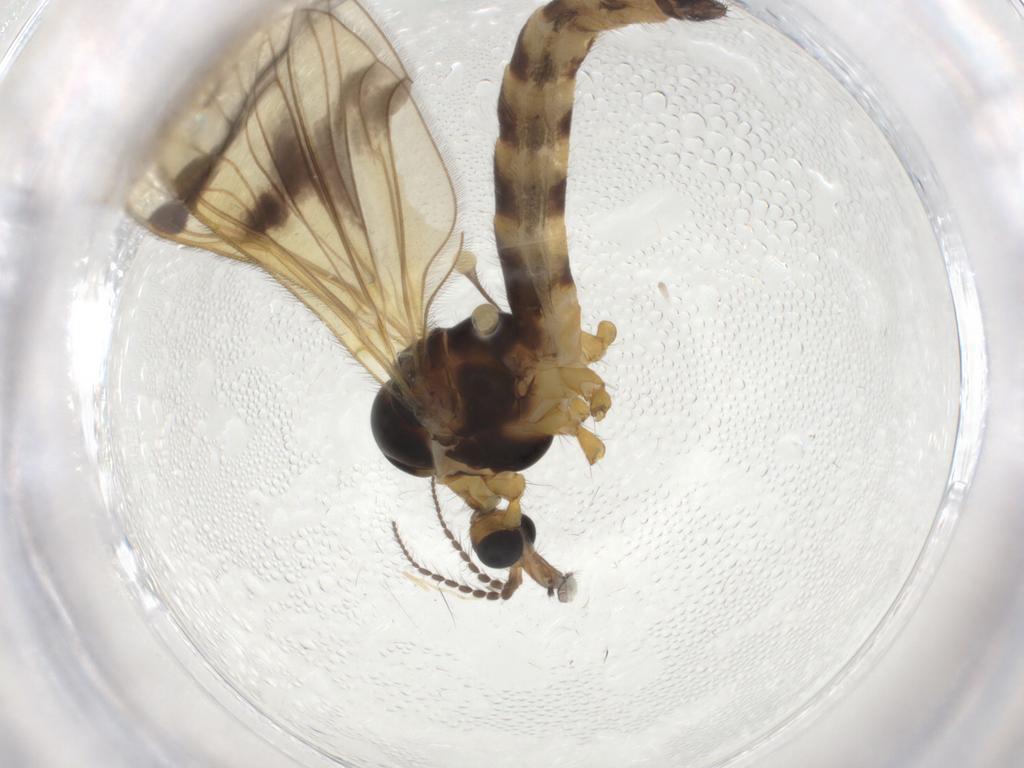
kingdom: Animalia
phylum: Arthropoda
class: Insecta
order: Diptera
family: Limoniidae
